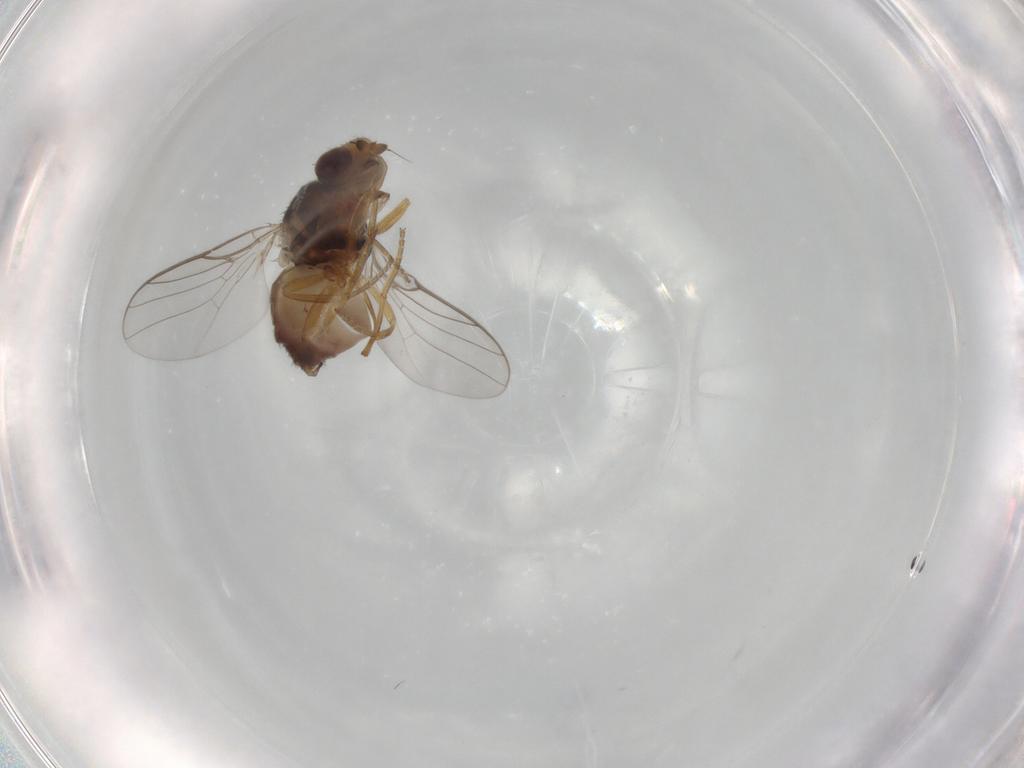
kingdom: Animalia
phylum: Arthropoda
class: Insecta
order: Diptera
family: Chloropidae
